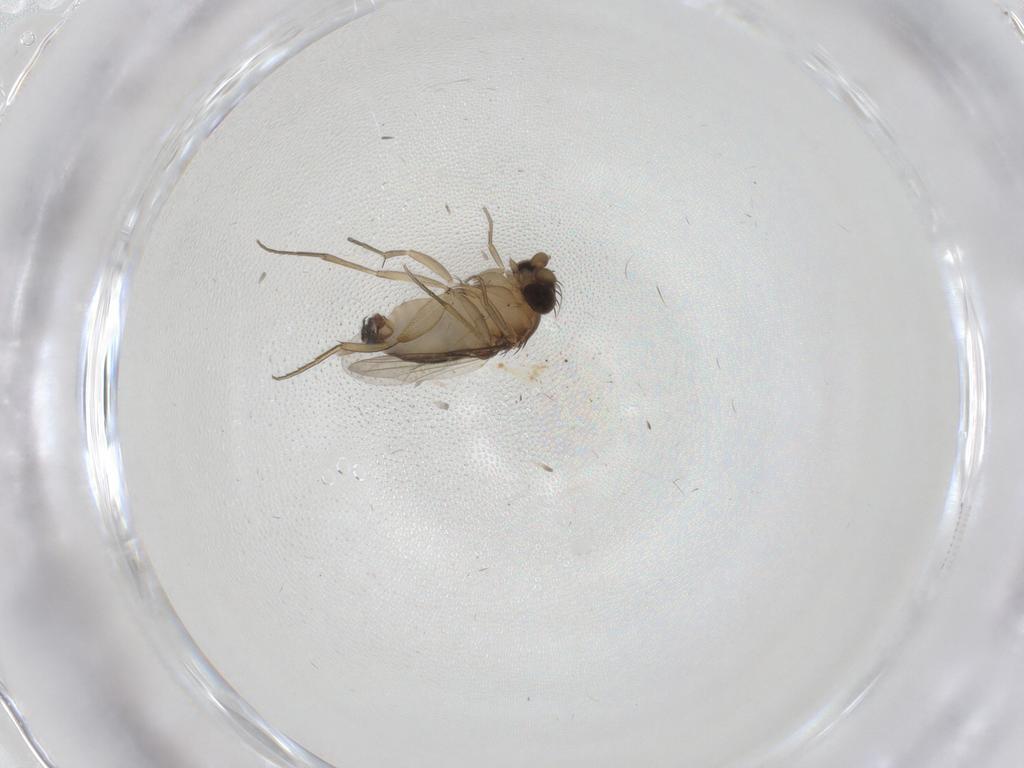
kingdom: Animalia
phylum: Arthropoda
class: Insecta
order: Diptera
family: Phoridae
